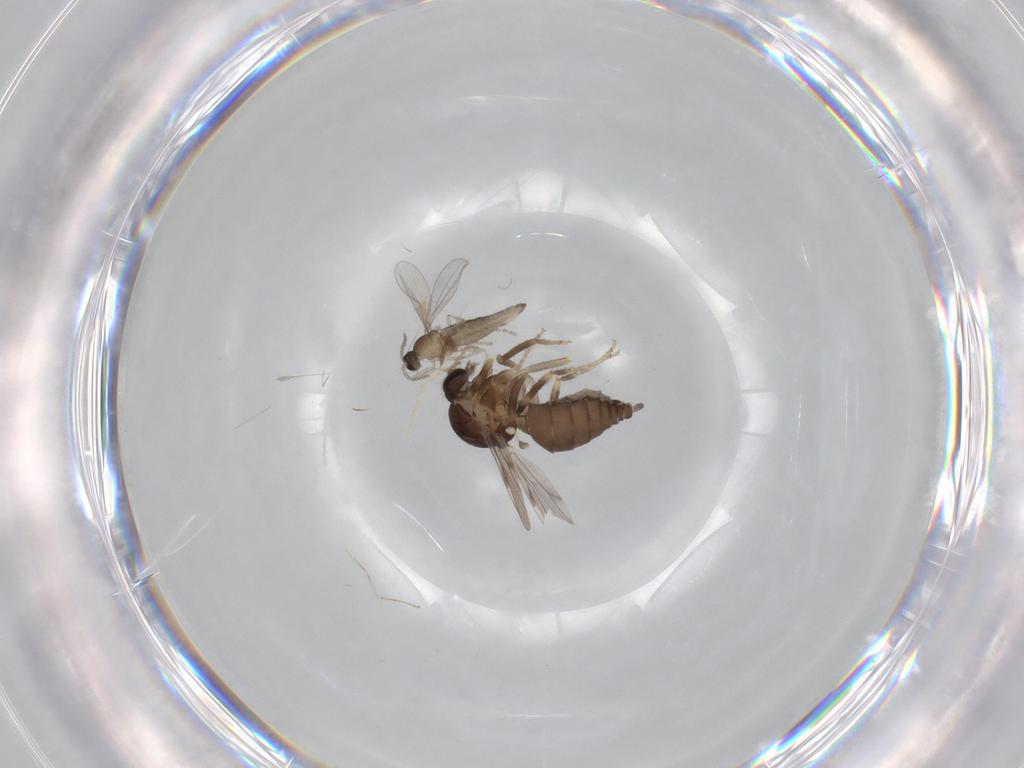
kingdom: Animalia
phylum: Arthropoda
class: Insecta
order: Diptera
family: Ceratopogonidae
